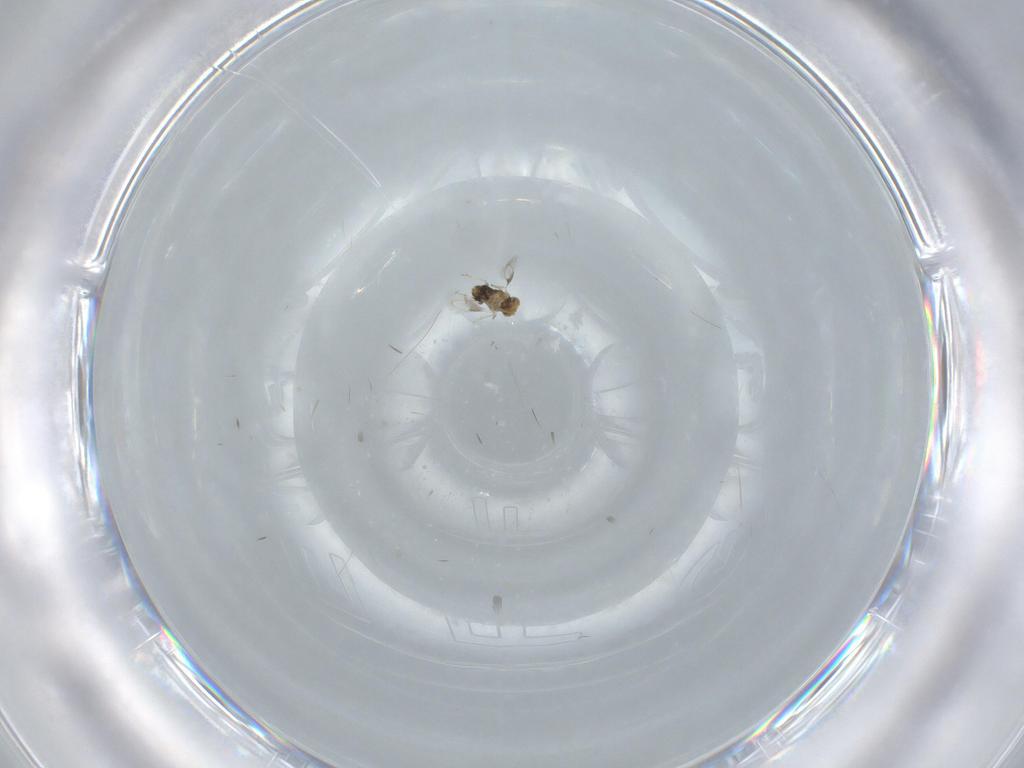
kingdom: Animalia
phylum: Arthropoda
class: Insecta
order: Hymenoptera
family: Aphelinidae
